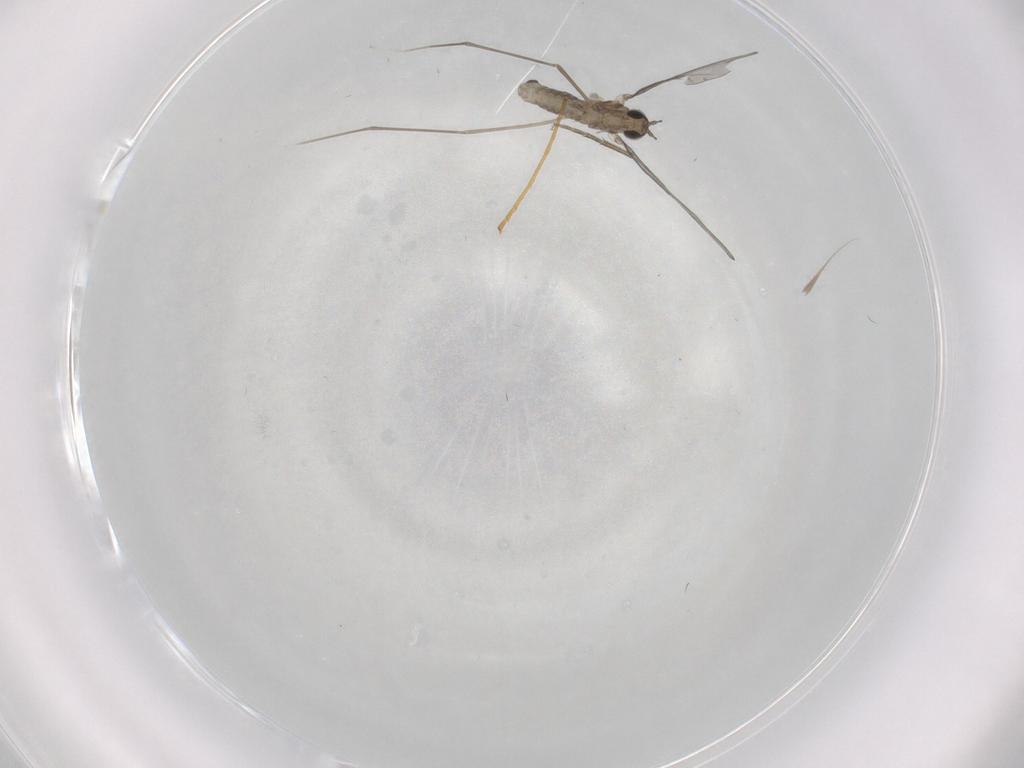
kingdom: Animalia
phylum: Arthropoda
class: Insecta
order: Diptera
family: Cecidomyiidae
